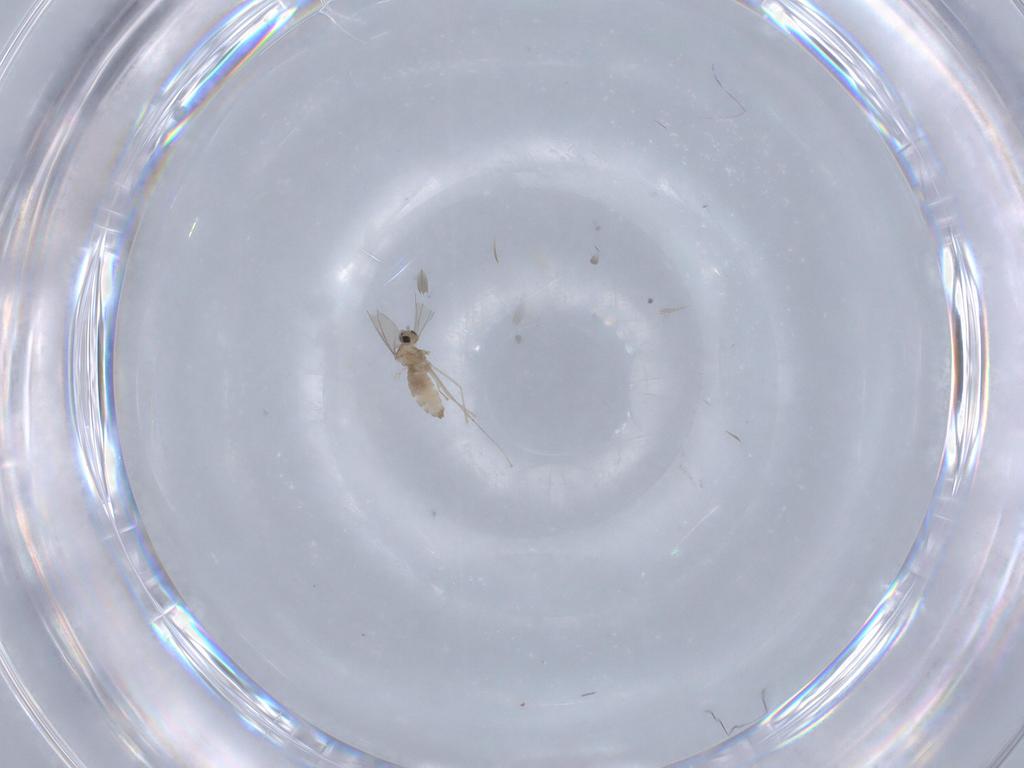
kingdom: Animalia
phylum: Arthropoda
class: Insecta
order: Diptera
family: Cecidomyiidae
